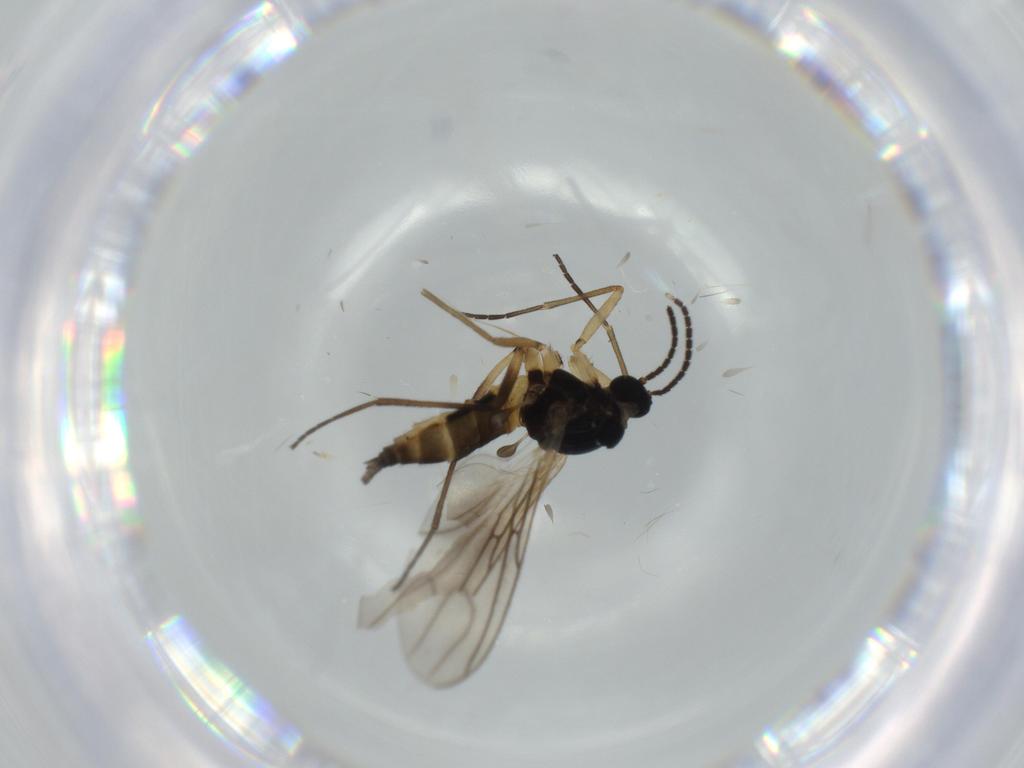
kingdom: Animalia
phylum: Arthropoda
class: Insecta
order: Diptera
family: Sciaridae
